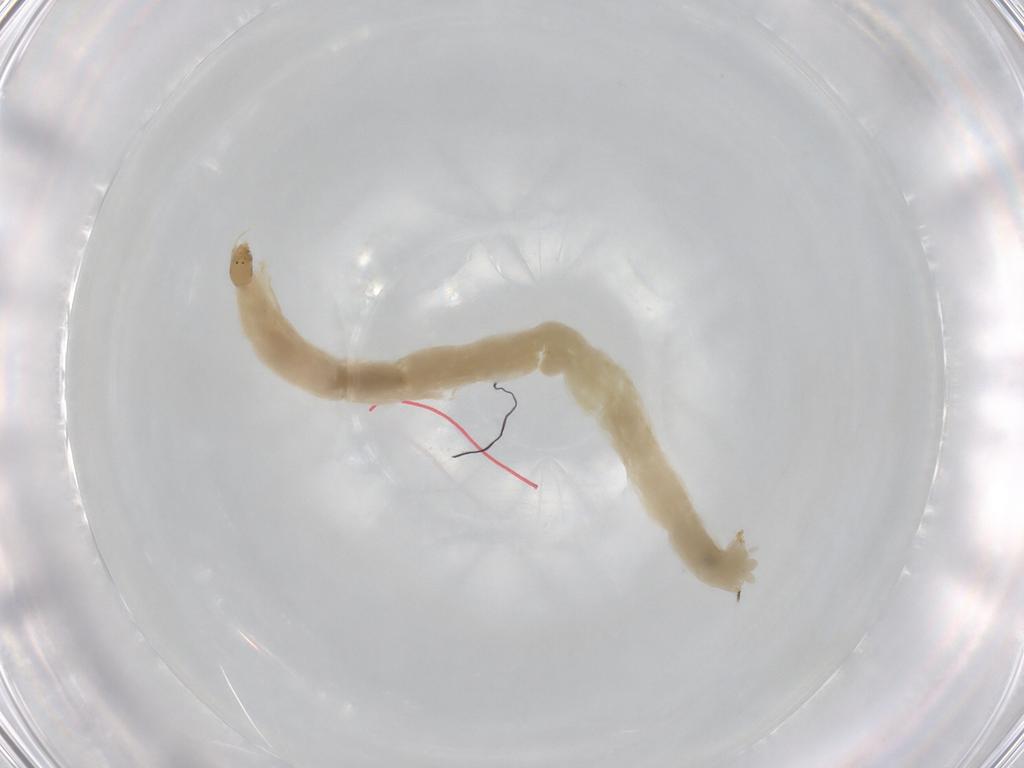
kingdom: Animalia
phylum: Arthropoda
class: Insecta
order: Diptera
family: Chironomidae
